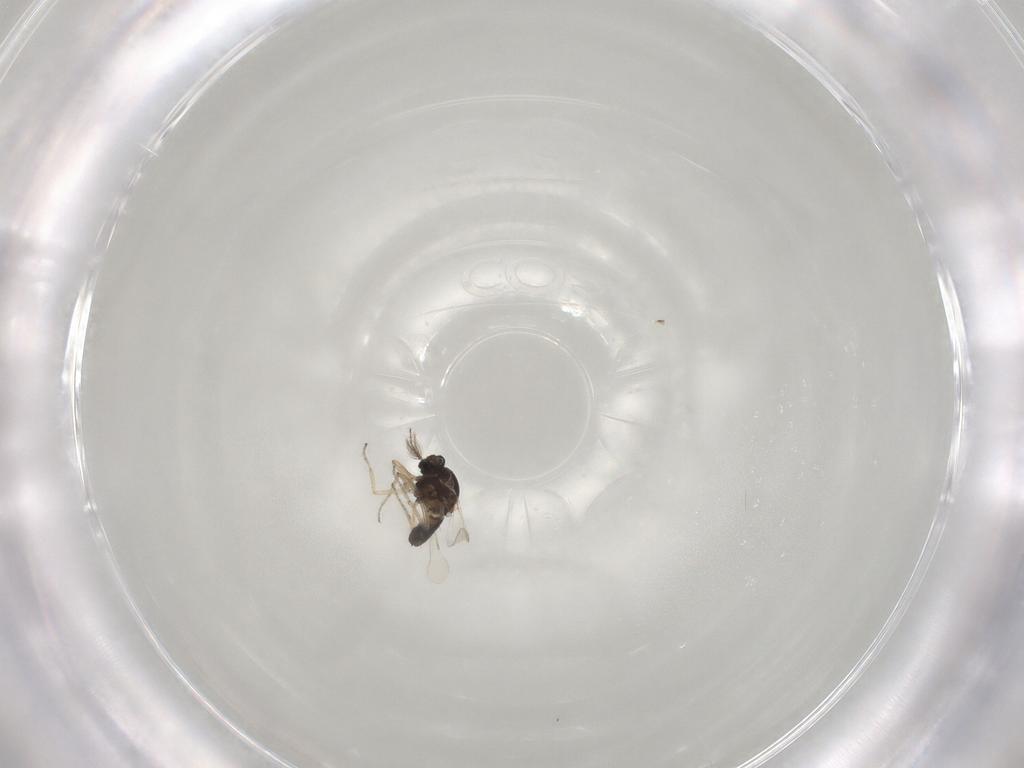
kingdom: Animalia
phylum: Arthropoda
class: Insecta
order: Diptera
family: Ceratopogonidae
